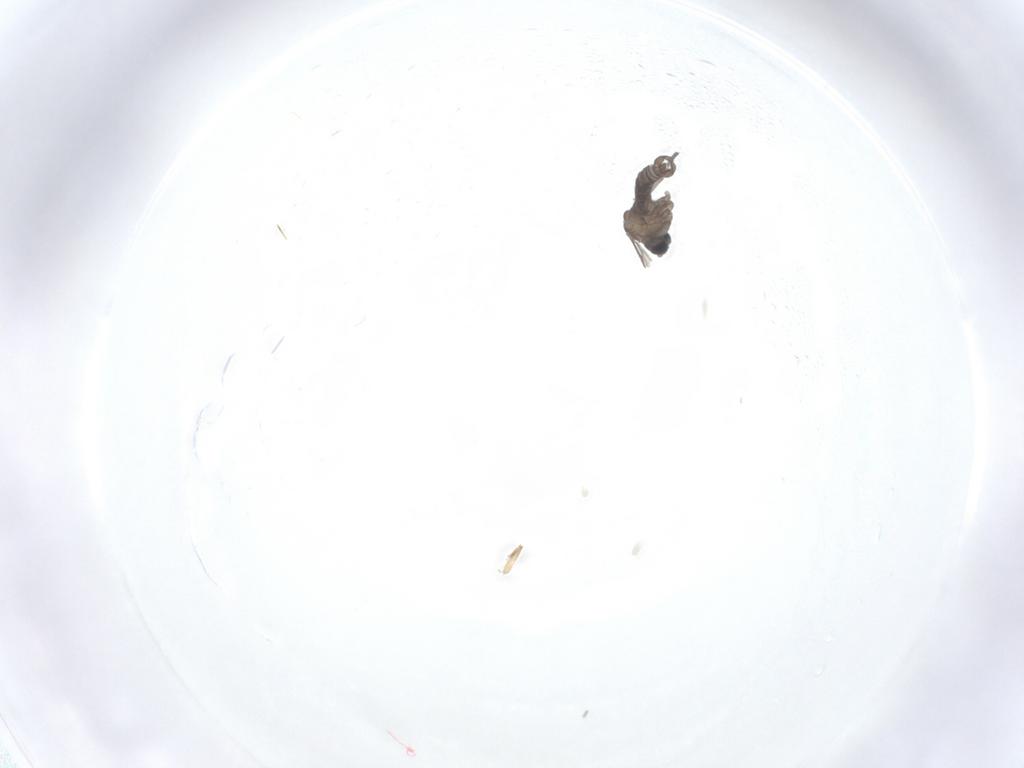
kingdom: Animalia
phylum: Arthropoda
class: Insecta
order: Diptera
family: Sciaridae
